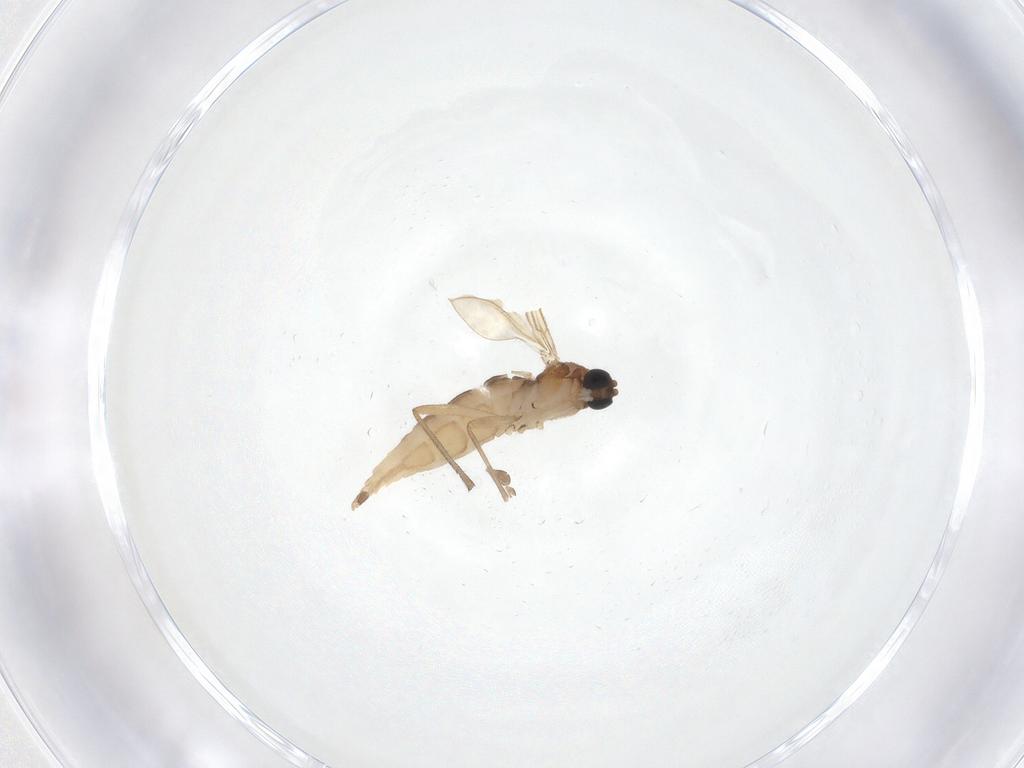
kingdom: Animalia
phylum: Arthropoda
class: Insecta
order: Diptera
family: Sciaridae
